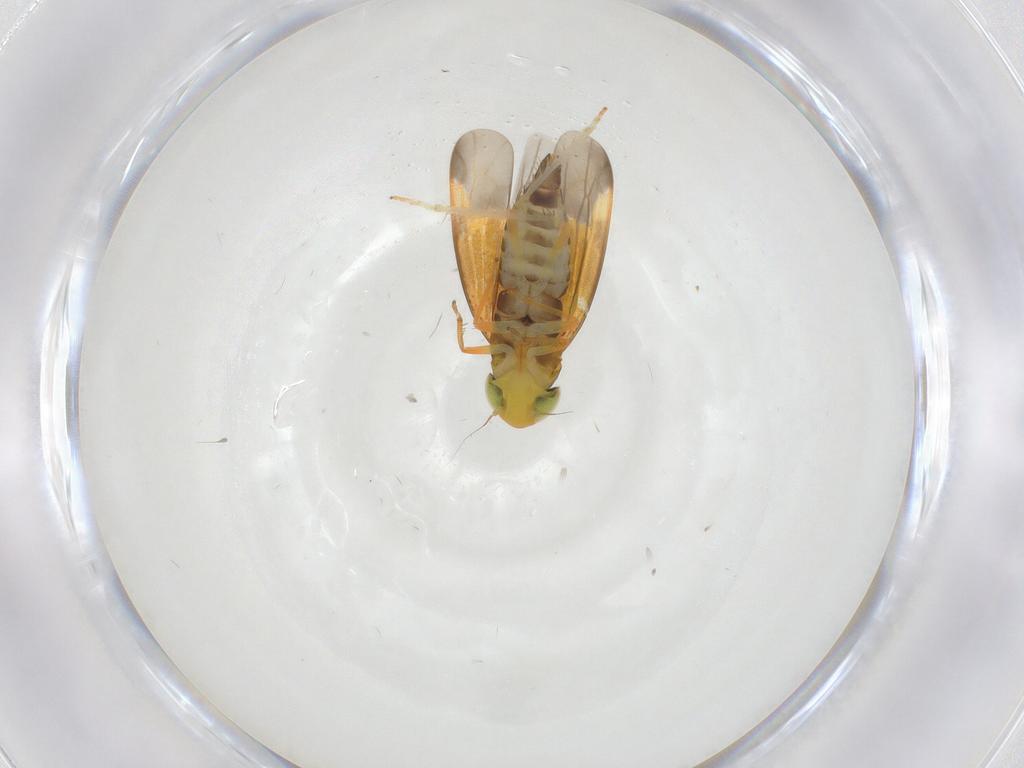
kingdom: Animalia
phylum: Arthropoda
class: Insecta
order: Hemiptera
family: Cicadellidae
